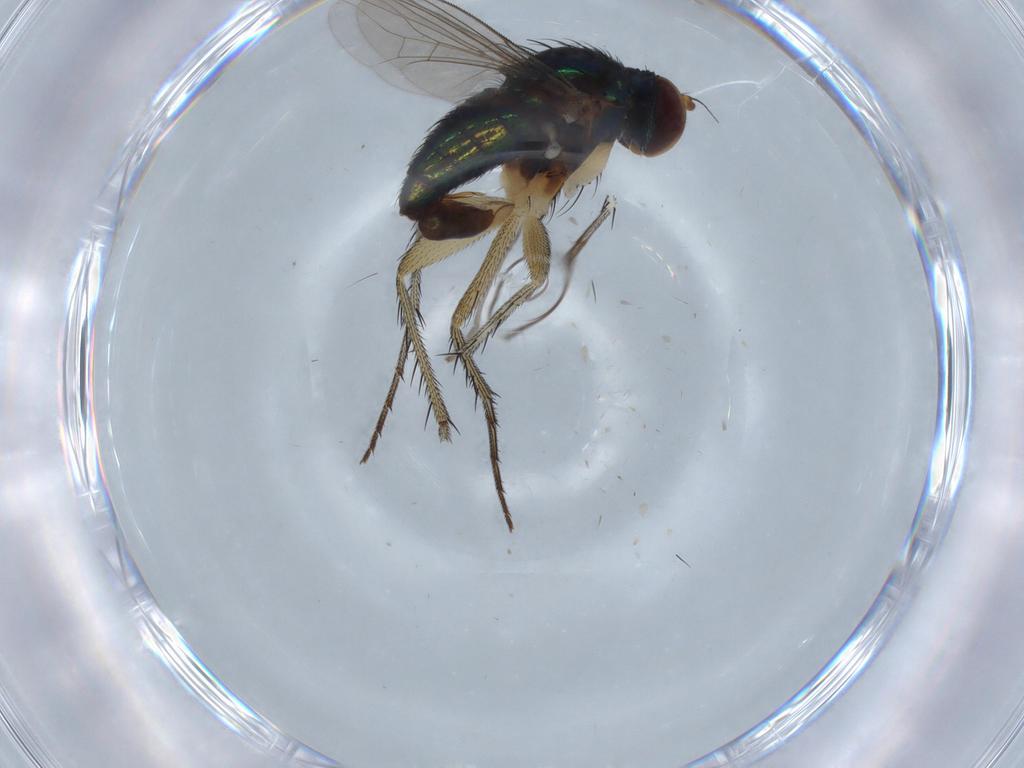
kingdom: Animalia
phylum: Arthropoda
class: Insecta
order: Diptera
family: Dolichopodidae
